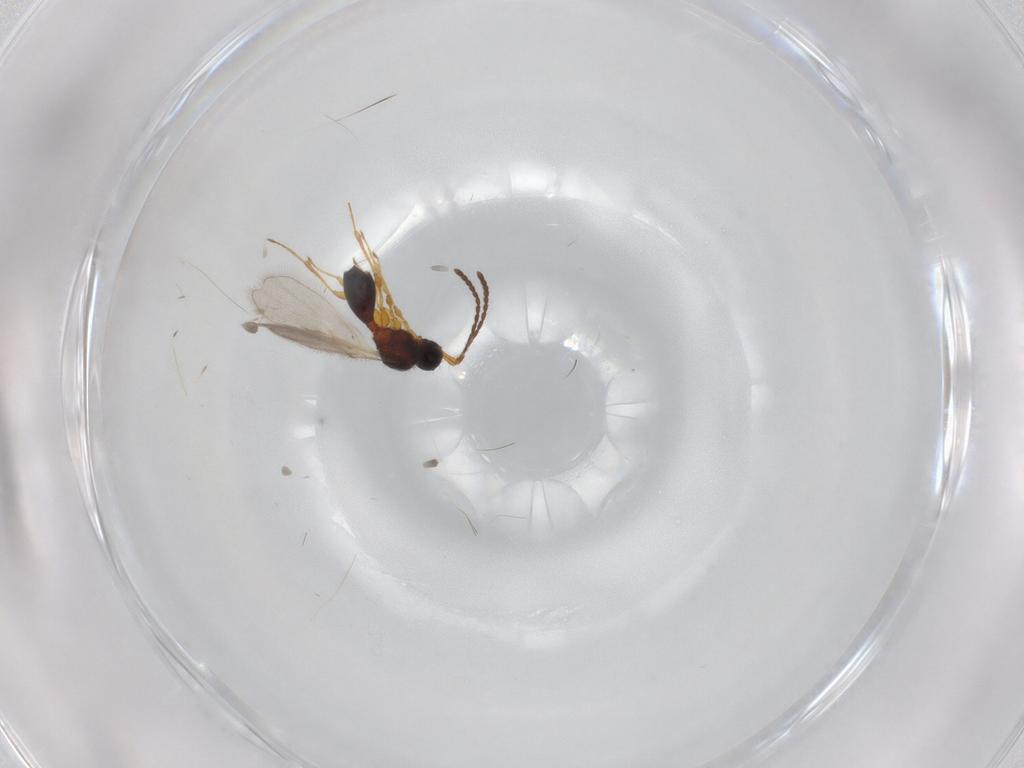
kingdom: Animalia
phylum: Arthropoda
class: Insecta
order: Hymenoptera
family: Diapriidae
